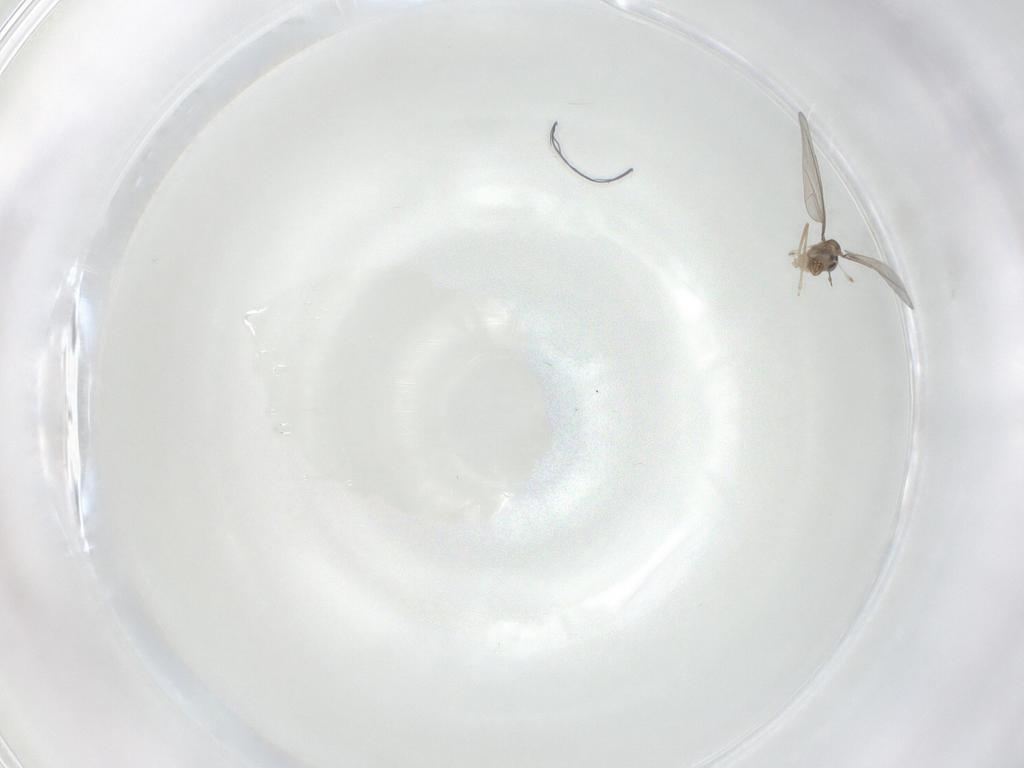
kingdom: Animalia
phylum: Arthropoda
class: Insecta
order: Diptera
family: Cecidomyiidae
